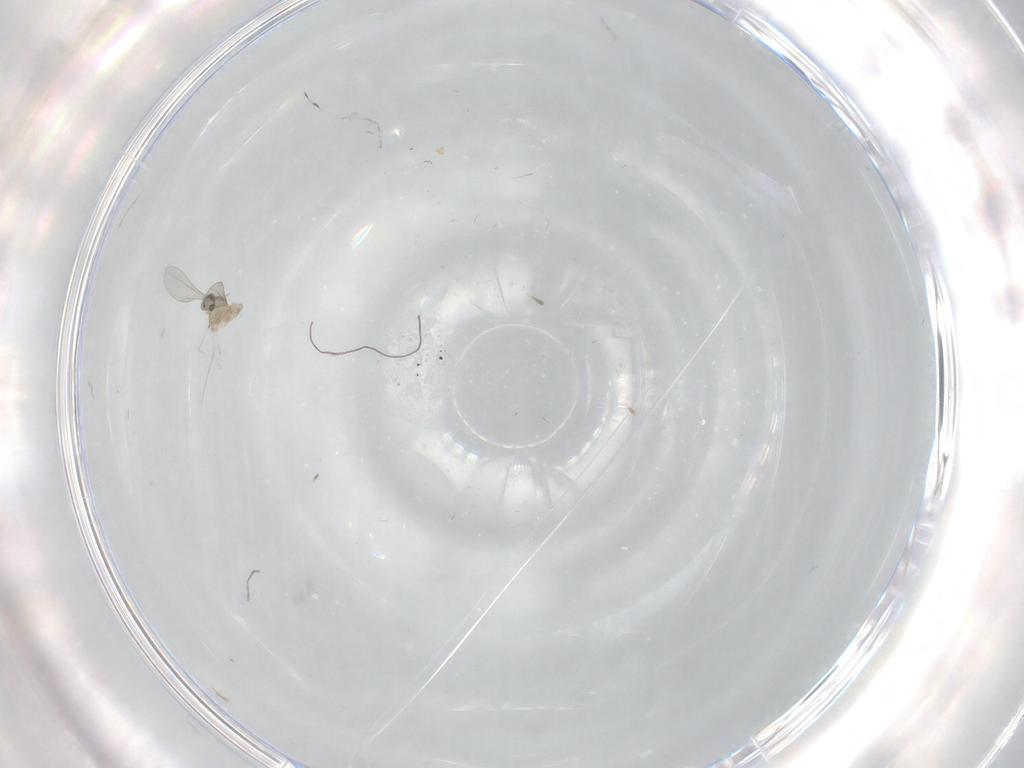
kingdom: Animalia
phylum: Arthropoda
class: Insecta
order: Diptera
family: Cecidomyiidae
